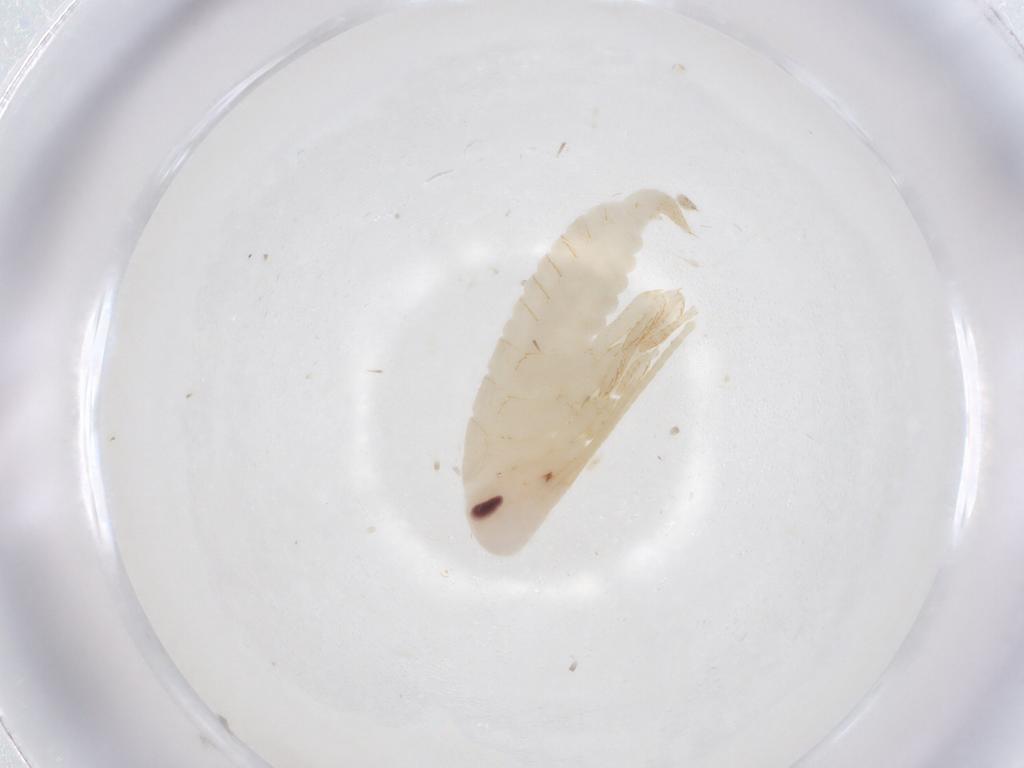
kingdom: Animalia
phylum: Arthropoda
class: Insecta
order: Blattodea
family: Ectobiidae
